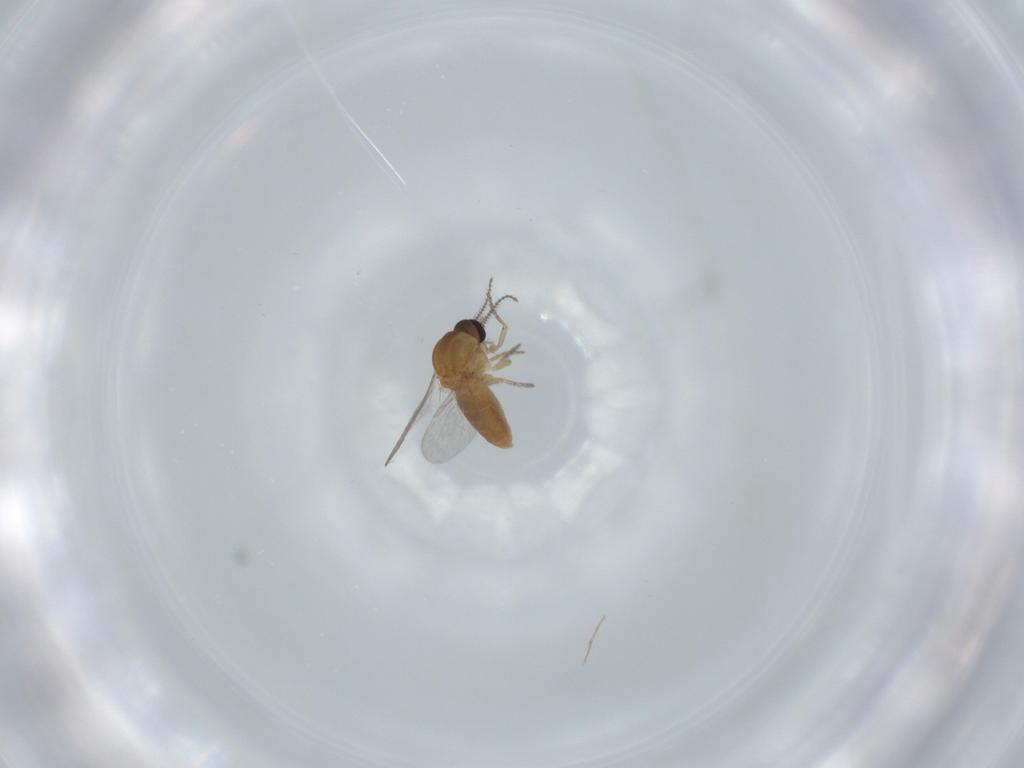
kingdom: Animalia
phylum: Arthropoda
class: Insecta
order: Diptera
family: Ceratopogonidae
